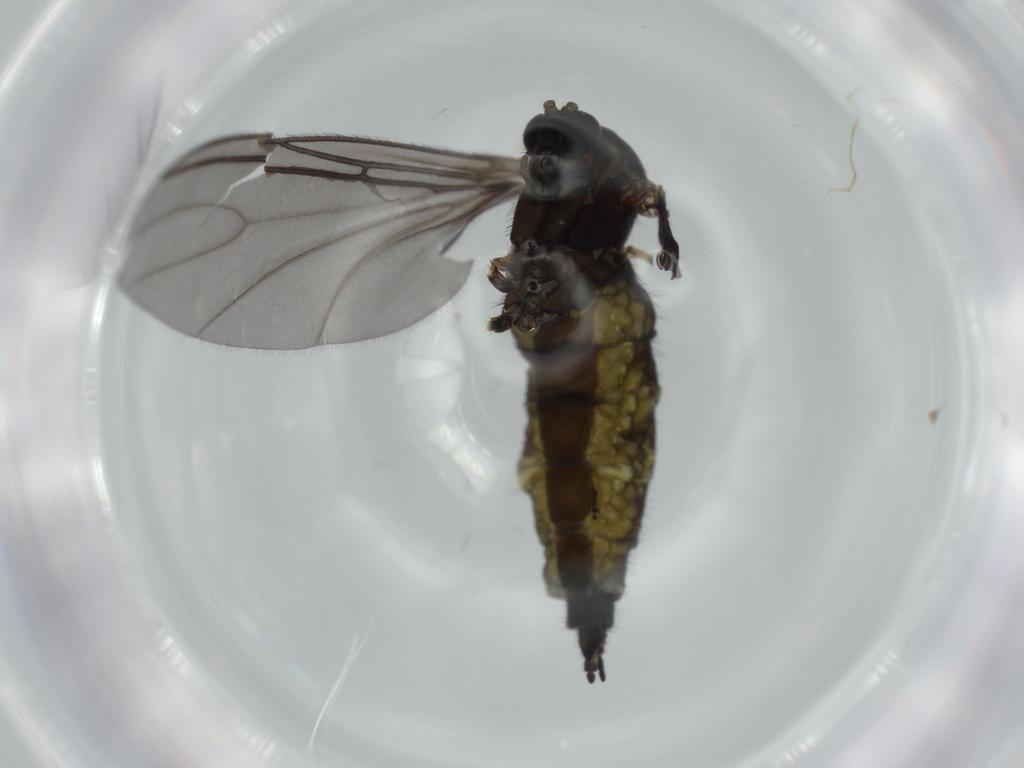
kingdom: Animalia
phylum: Arthropoda
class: Insecta
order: Diptera
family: Sciaridae
